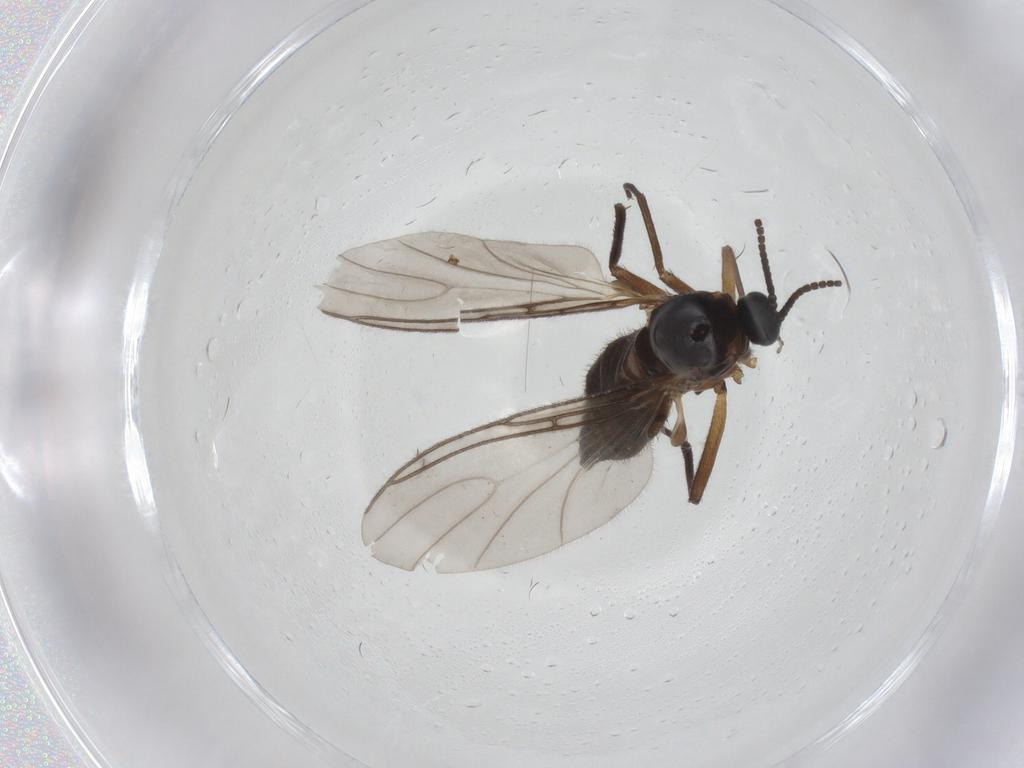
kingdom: Animalia
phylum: Arthropoda
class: Insecta
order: Diptera
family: Sciaridae
